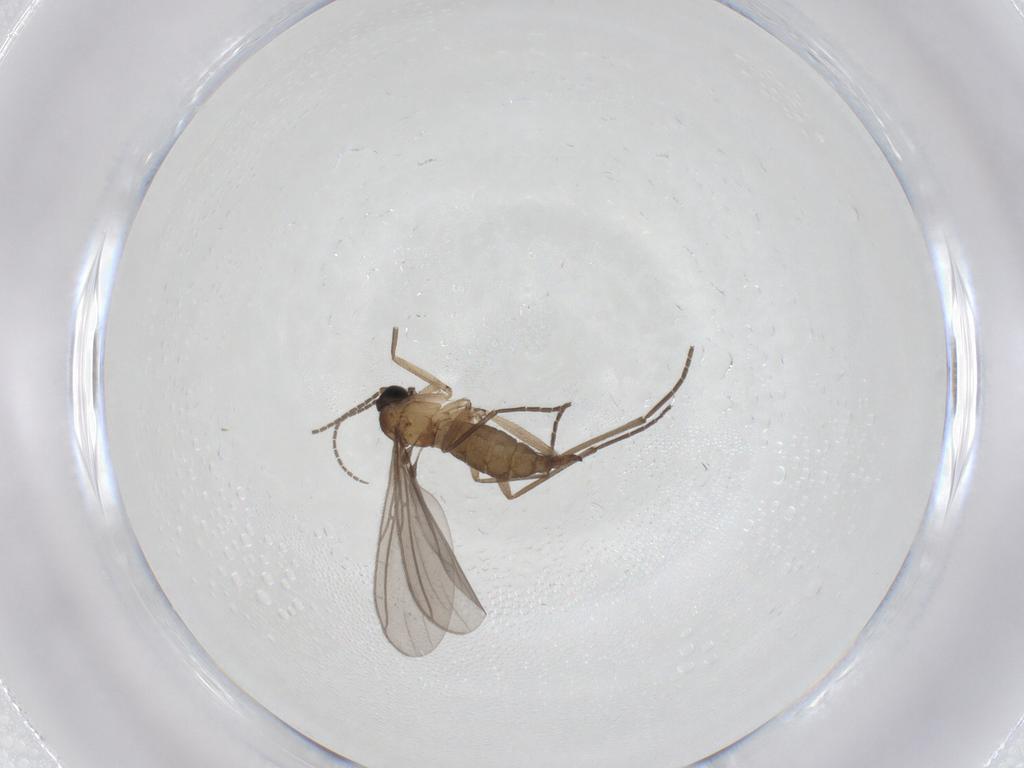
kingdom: Animalia
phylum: Arthropoda
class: Insecta
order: Diptera
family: Sciaridae
